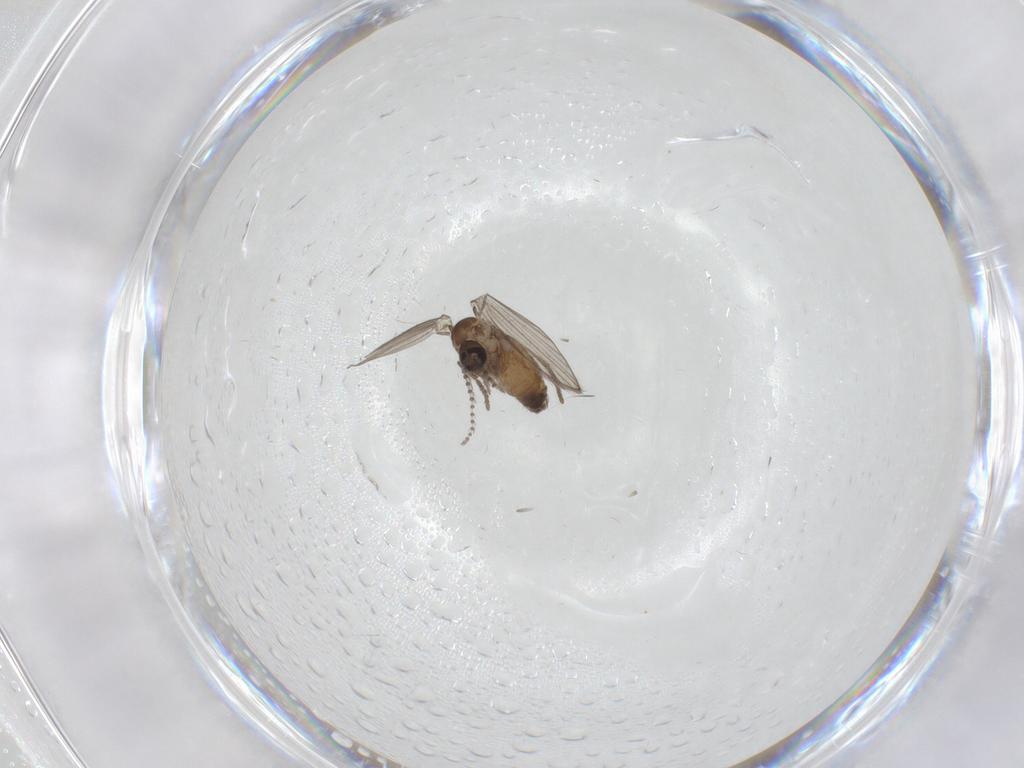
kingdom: Animalia
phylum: Arthropoda
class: Insecta
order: Diptera
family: Psychodidae
